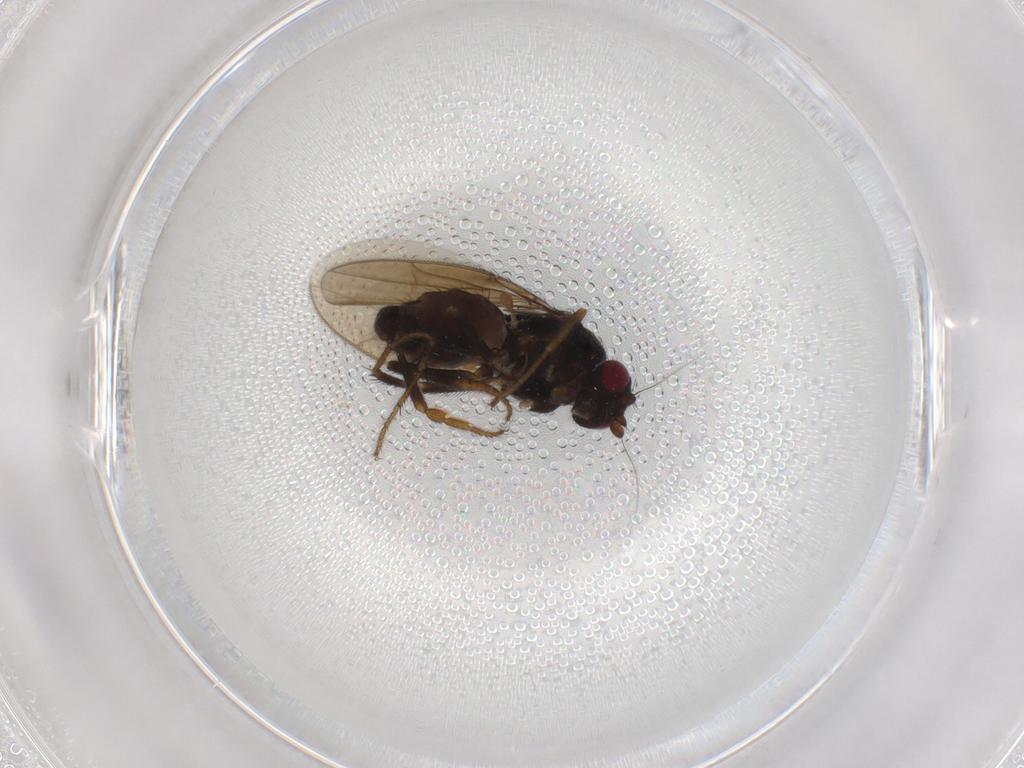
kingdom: Animalia
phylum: Arthropoda
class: Insecta
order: Diptera
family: Sphaeroceridae
